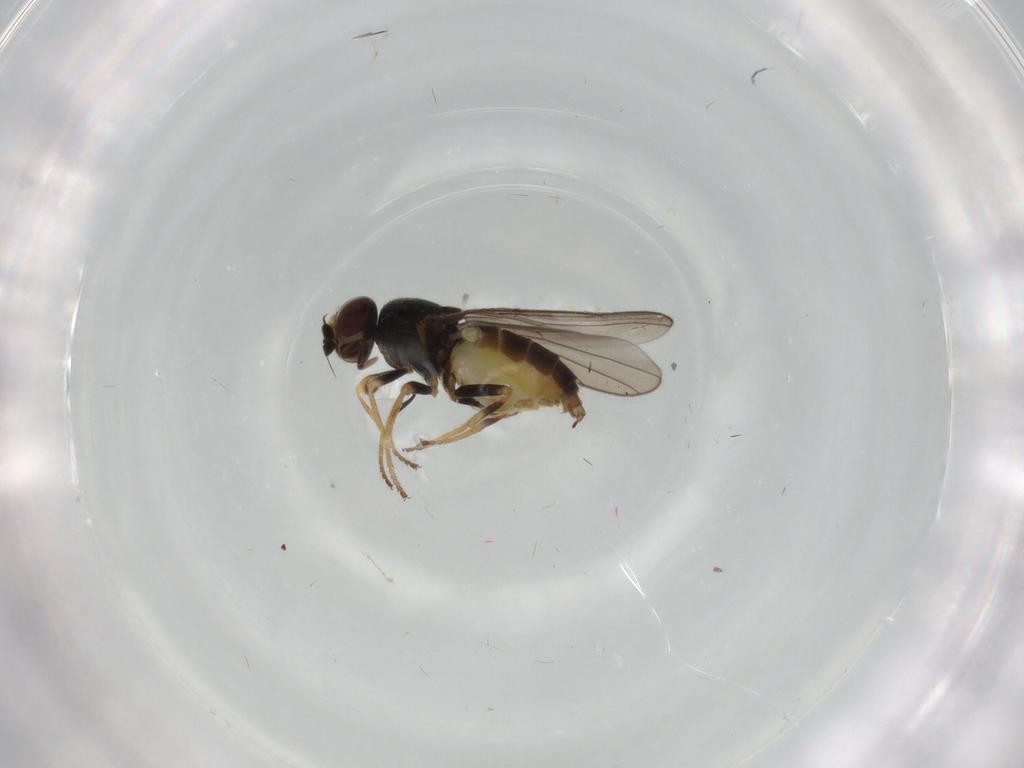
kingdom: Animalia
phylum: Arthropoda
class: Insecta
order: Diptera
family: Chloropidae
